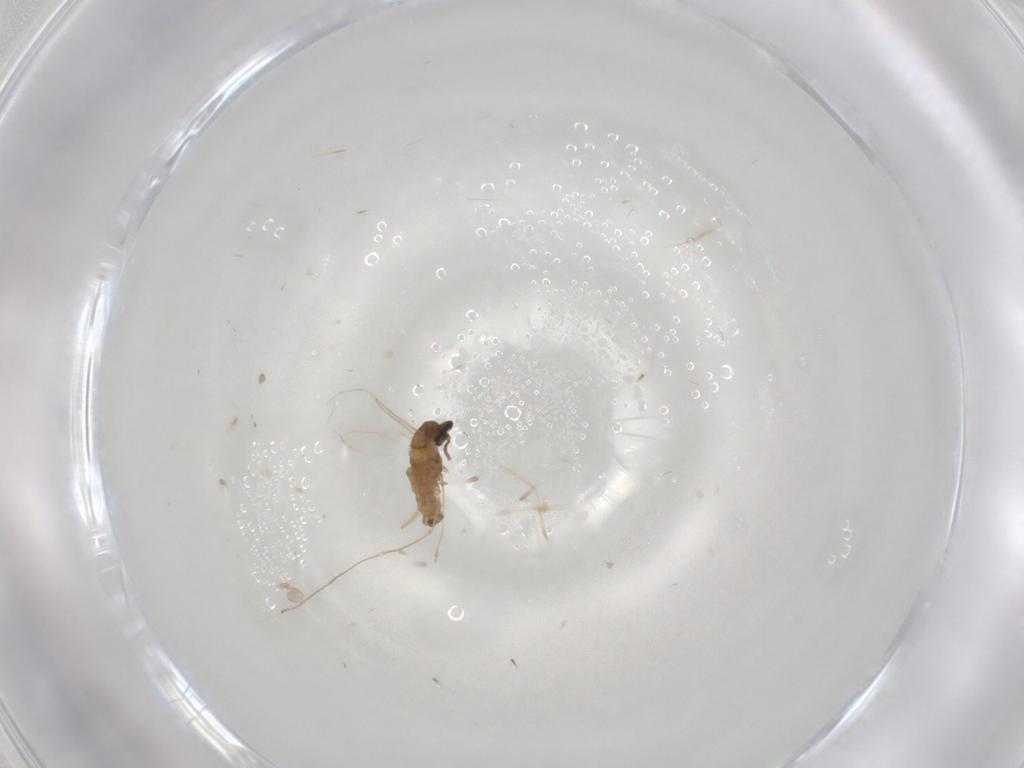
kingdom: Animalia
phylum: Arthropoda
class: Insecta
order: Diptera
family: Cecidomyiidae
